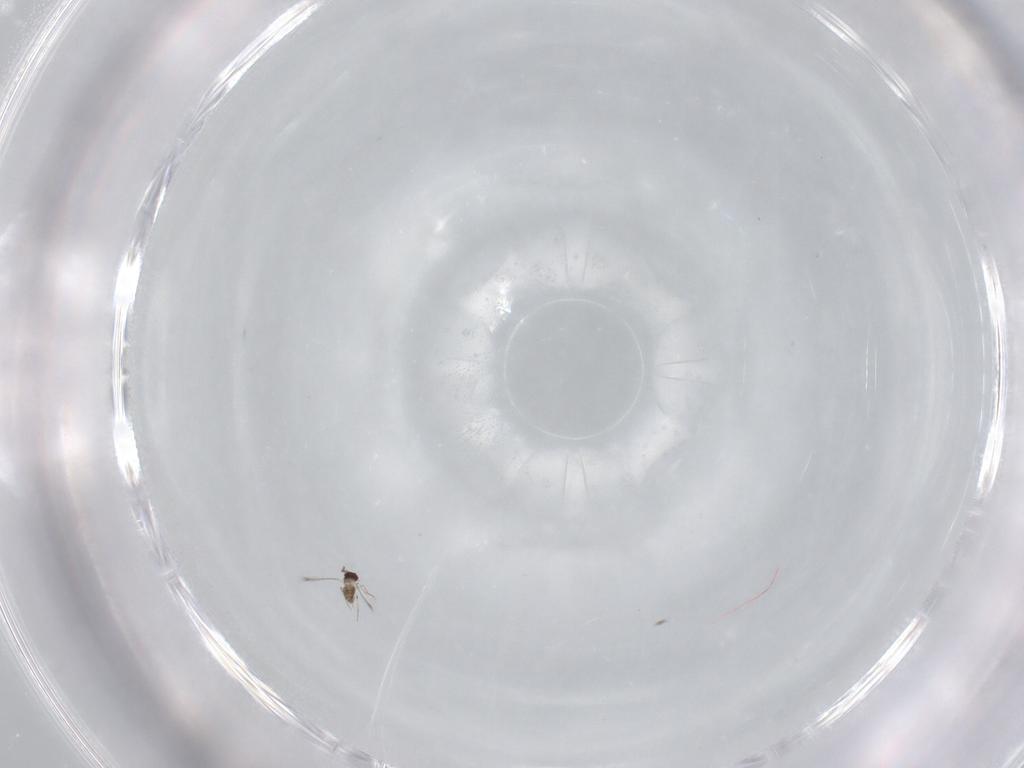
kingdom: Animalia
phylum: Arthropoda
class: Insecta
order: Hymenoptera
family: Mymaridae
